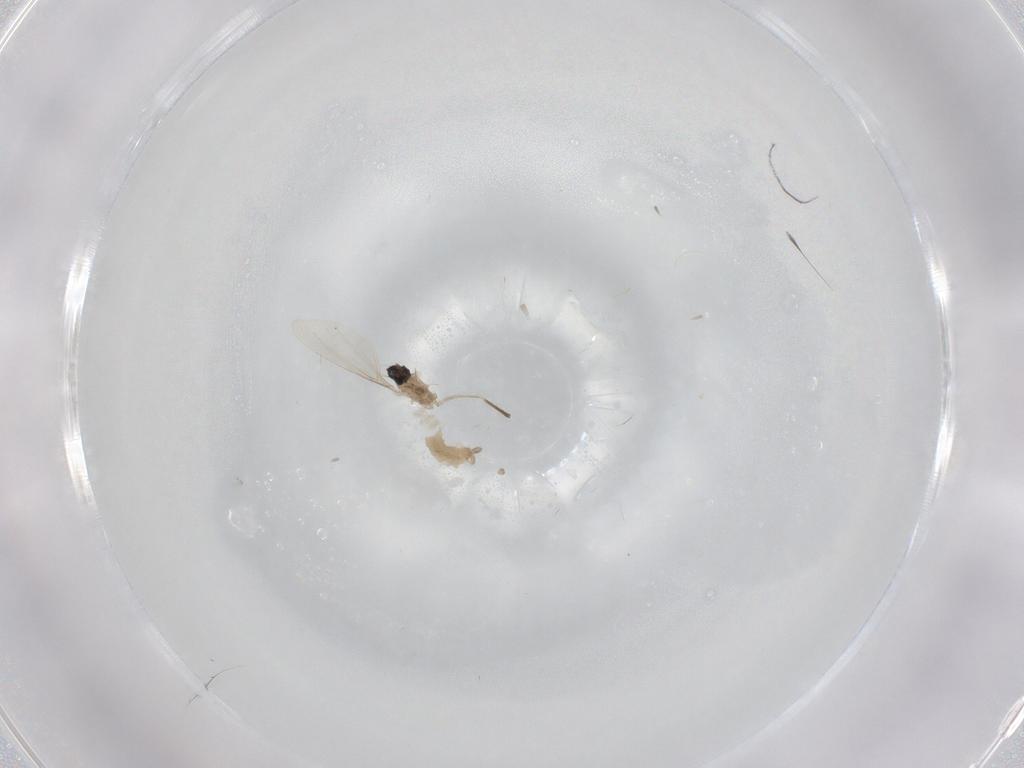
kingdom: Animalia
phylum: Arthropoda
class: Insecta
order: Diptera
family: Cecidomyiidae
